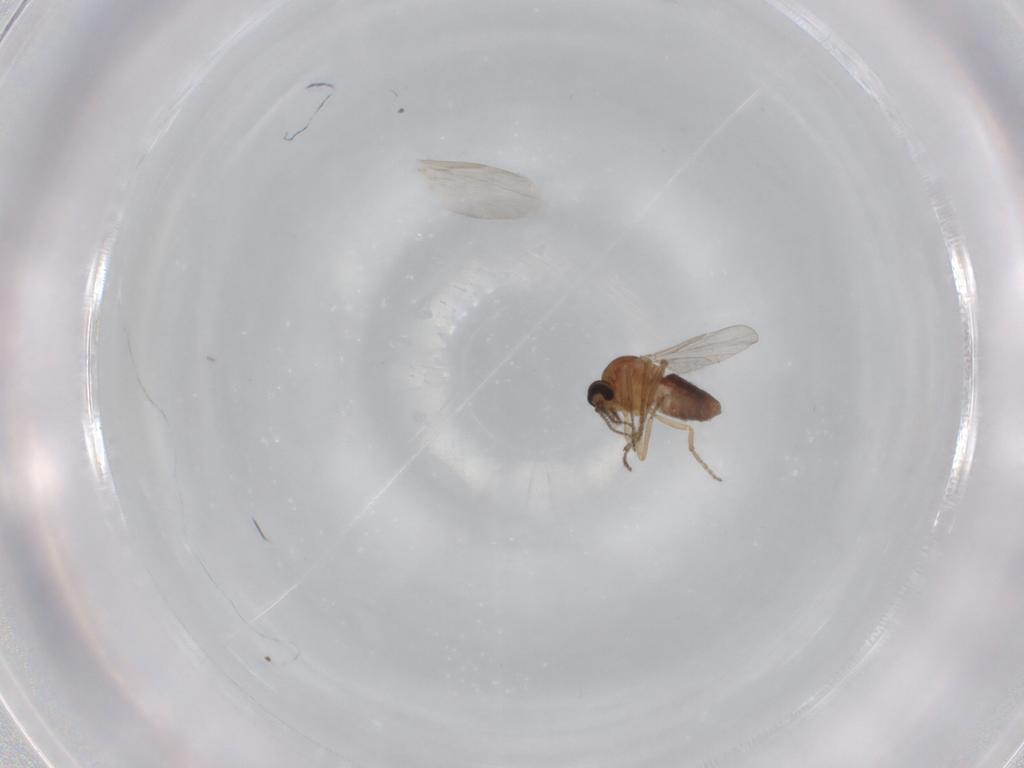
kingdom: Animalia
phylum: Arthropoda
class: Insecta
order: Diptera
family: Ceratopogonidae
